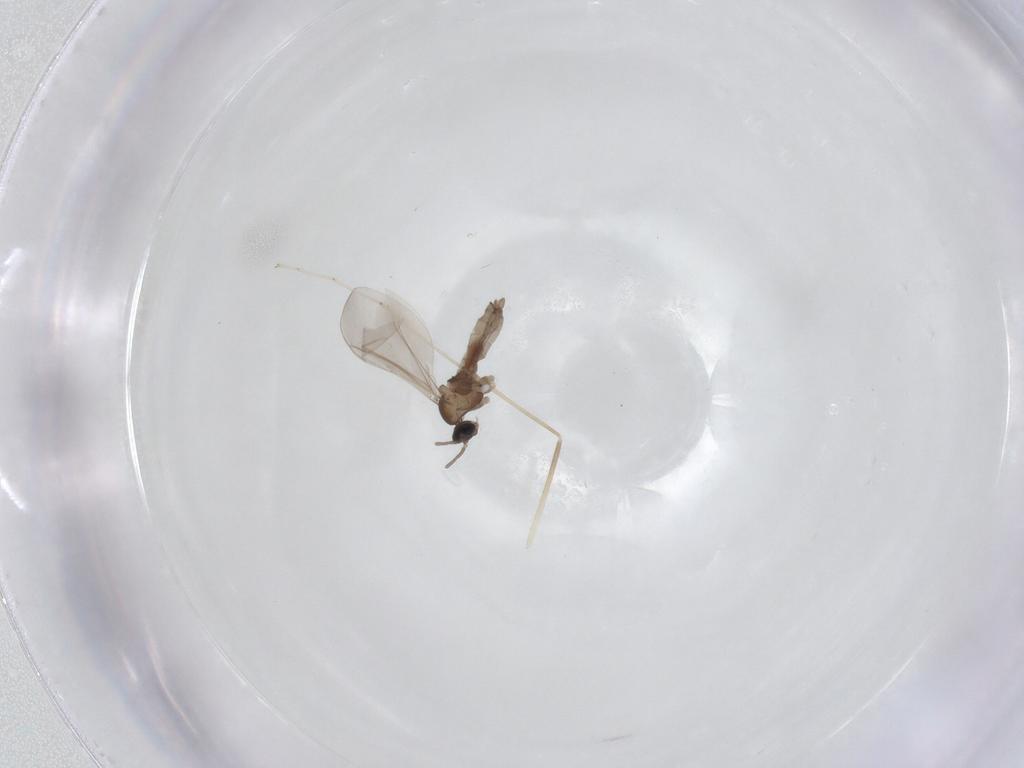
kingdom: Animalia
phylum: Arthropoda
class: Insecta
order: Diptera
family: Cecidomyiidae
